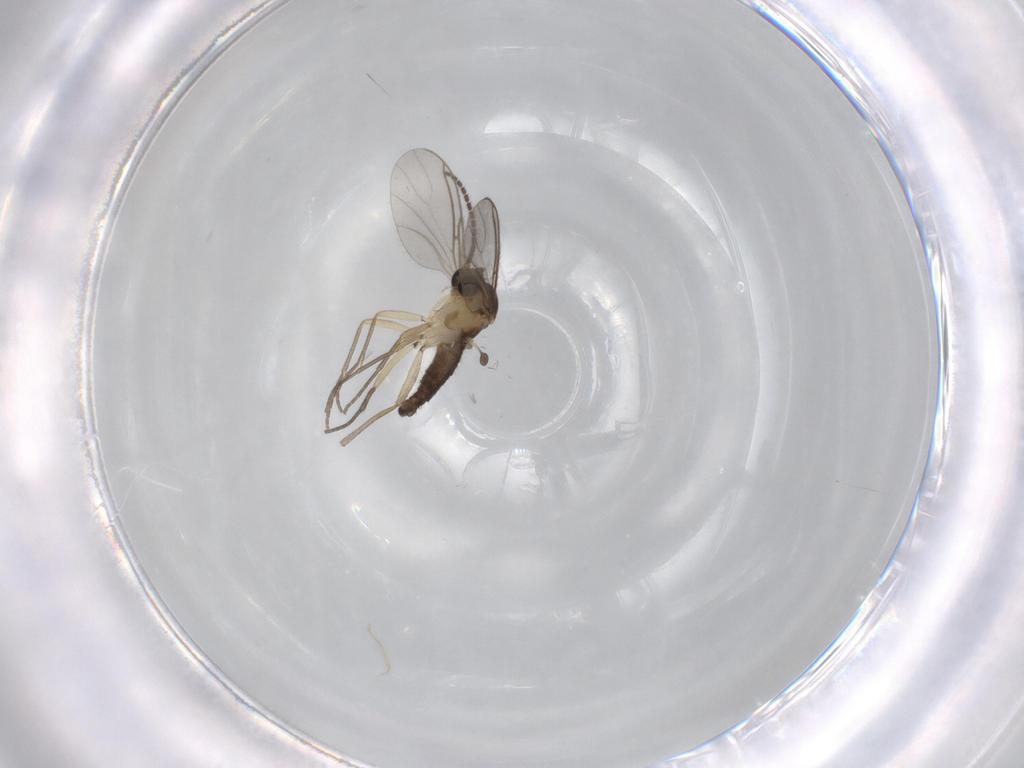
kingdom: Animalia
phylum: Arthropoda
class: Insecta
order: Diptera
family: Sciaridae
